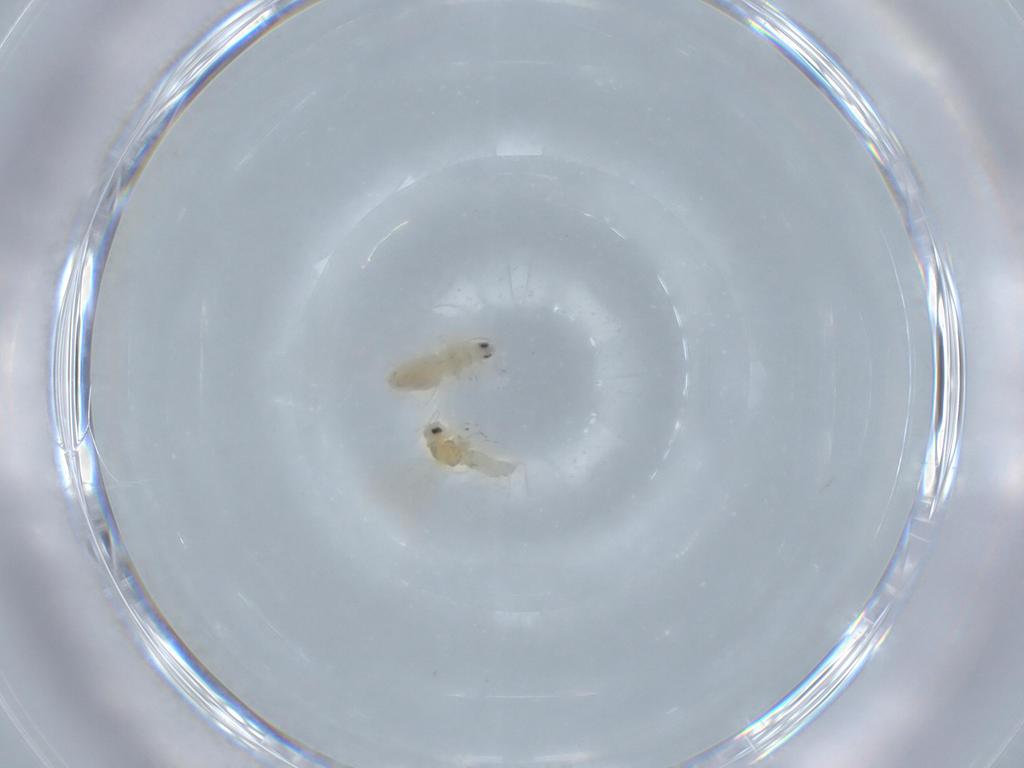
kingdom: Animalia
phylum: Arthropoda
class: Insecta
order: Hemiptera
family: Aleyrodidae
